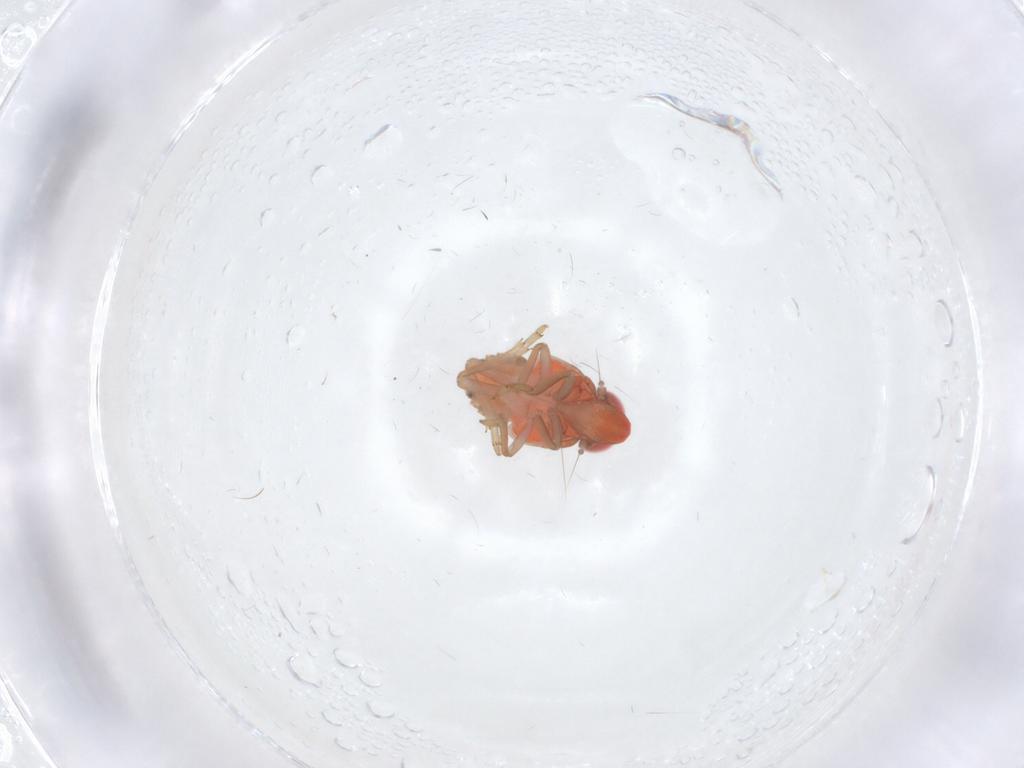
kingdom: Animalia
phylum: Arthropoda
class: Insecta
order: Hemiptera
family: Issidae
